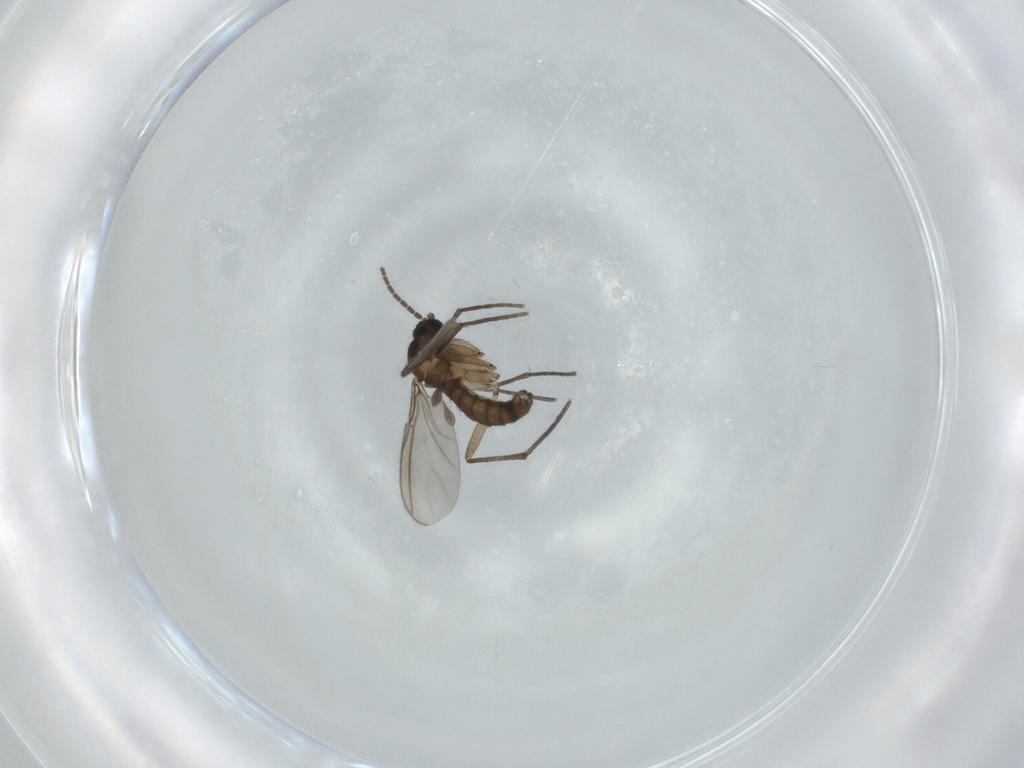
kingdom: Animalia
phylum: Arthropoda
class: Insecta
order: Diptera
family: Sciaridae
